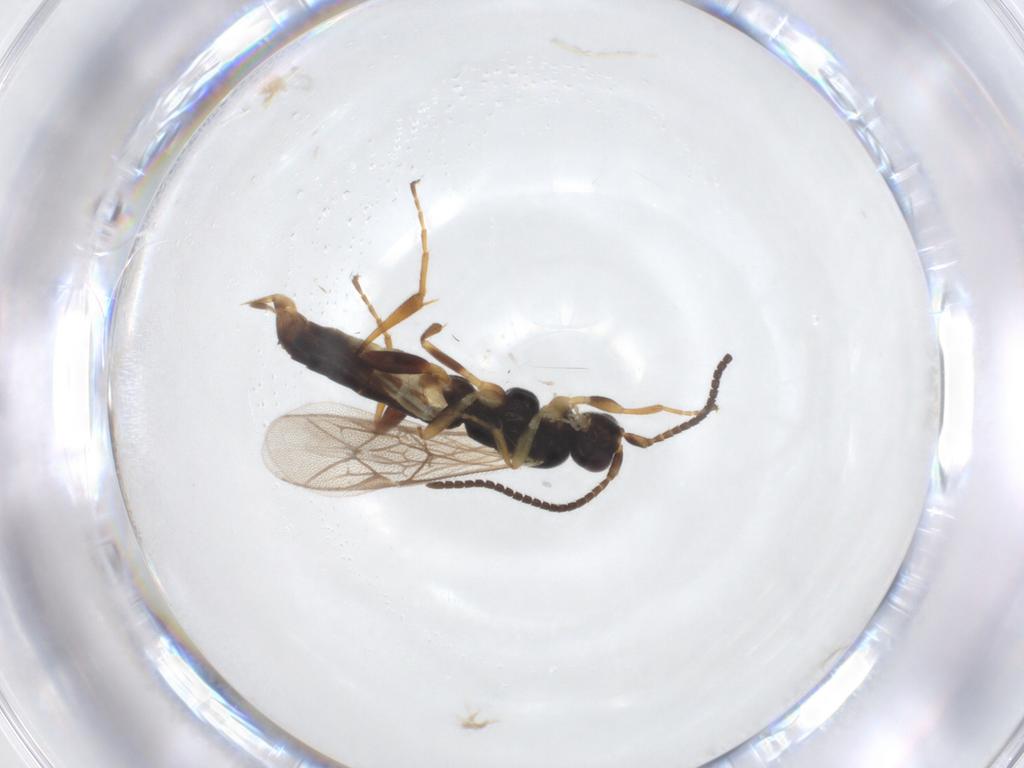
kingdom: Animalia
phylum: Arthropoda
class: Insecta
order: Hymenoptera
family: Ichneumonidae
